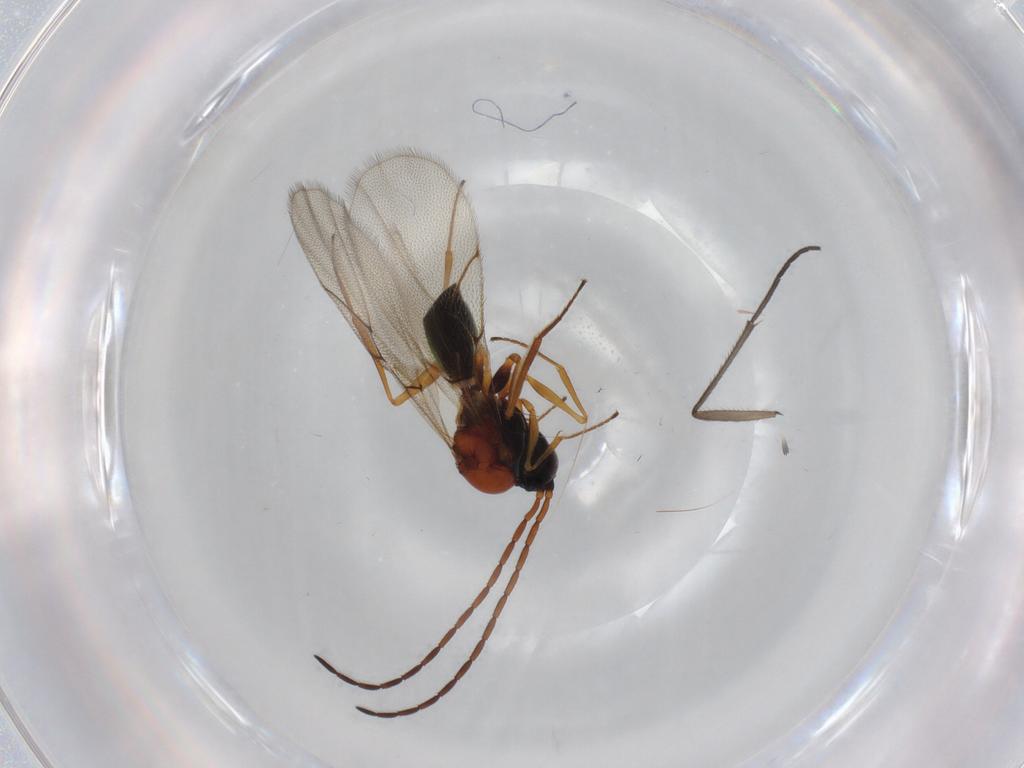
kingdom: Animalia
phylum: Arthropoda
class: Insecta
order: Hymenoptera
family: Figitidae
